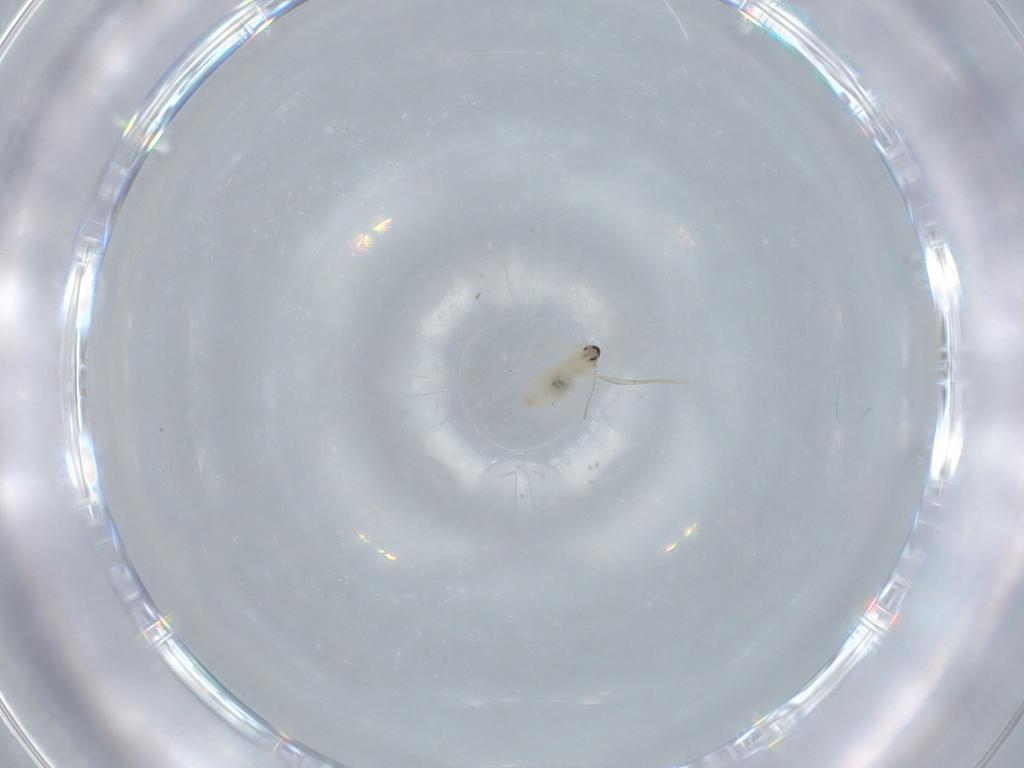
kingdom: Animalia
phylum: Arthropoda
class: Insecta
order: Diptera
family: Cecidomyiidae
